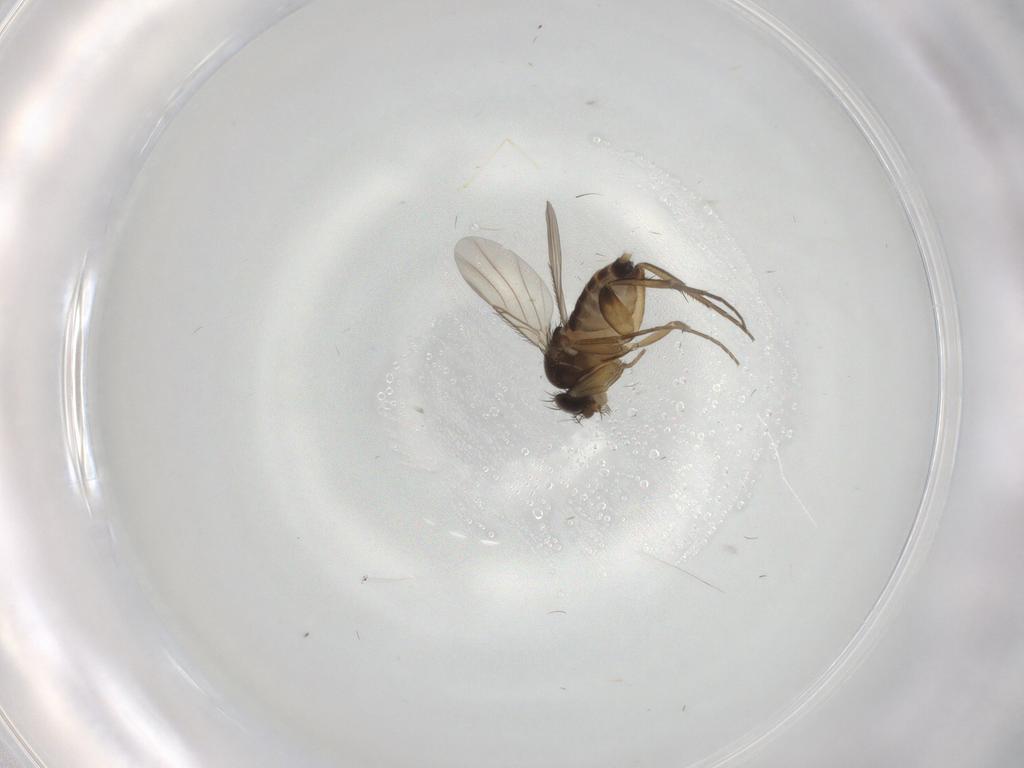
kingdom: Animalia
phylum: Arthropoda
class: Insecta
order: Diptera
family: Phoridae
